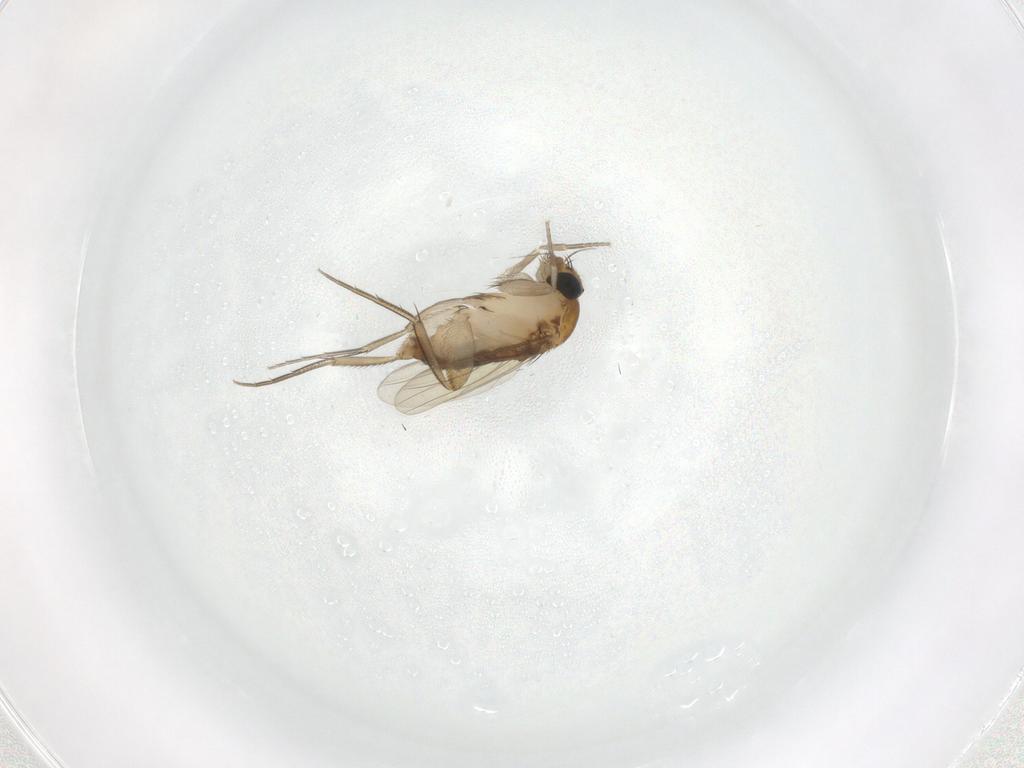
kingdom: Animalia
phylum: Arthropoda
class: Insecta
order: Diptera
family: Phoridae
